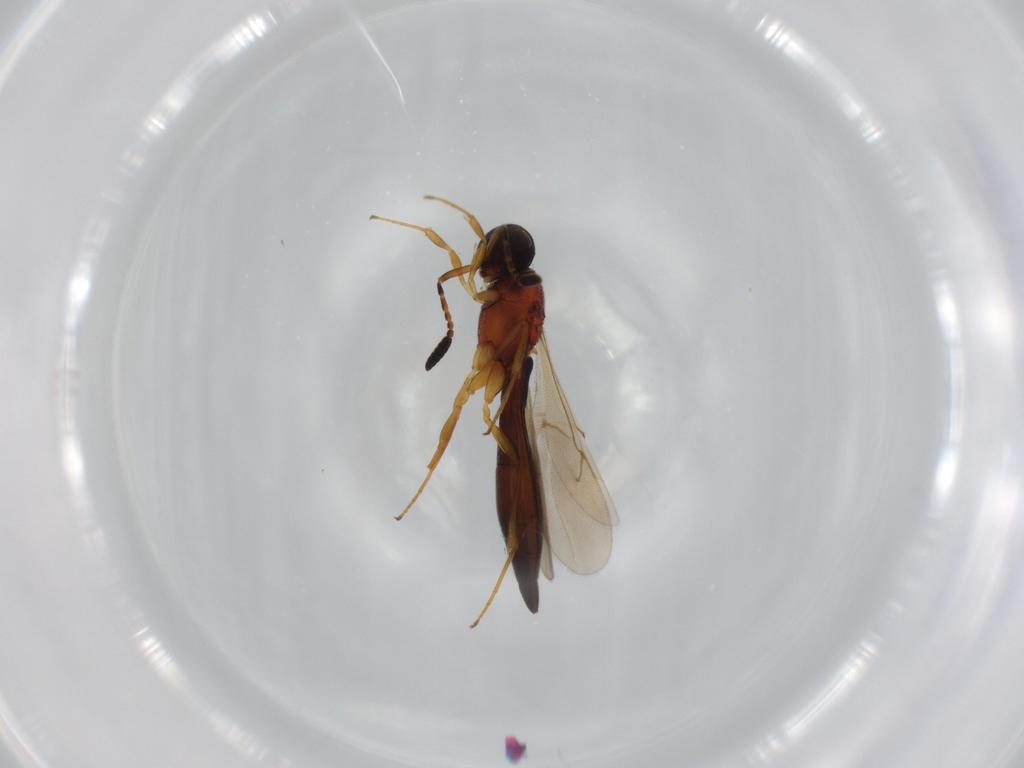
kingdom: Animalia
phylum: Arthropoda
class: Insecta
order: Hymenoptera
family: Scelionidae
